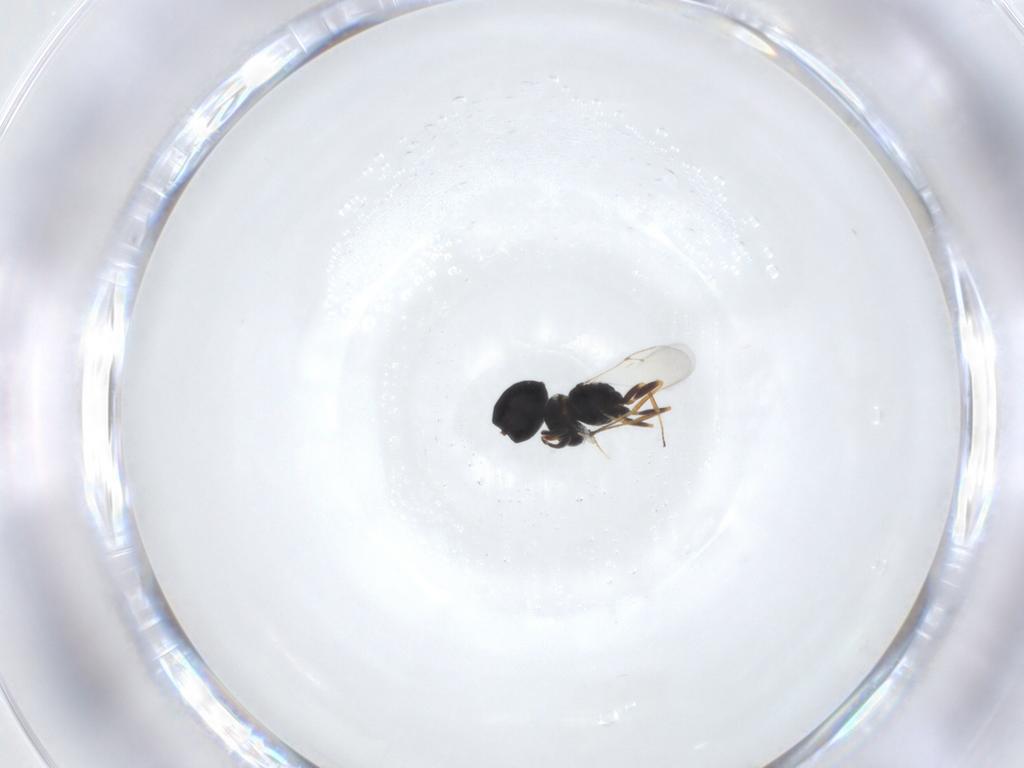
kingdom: Animalia
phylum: Arthropoda
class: Insecta
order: Hymenoptera
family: Scelionidae
